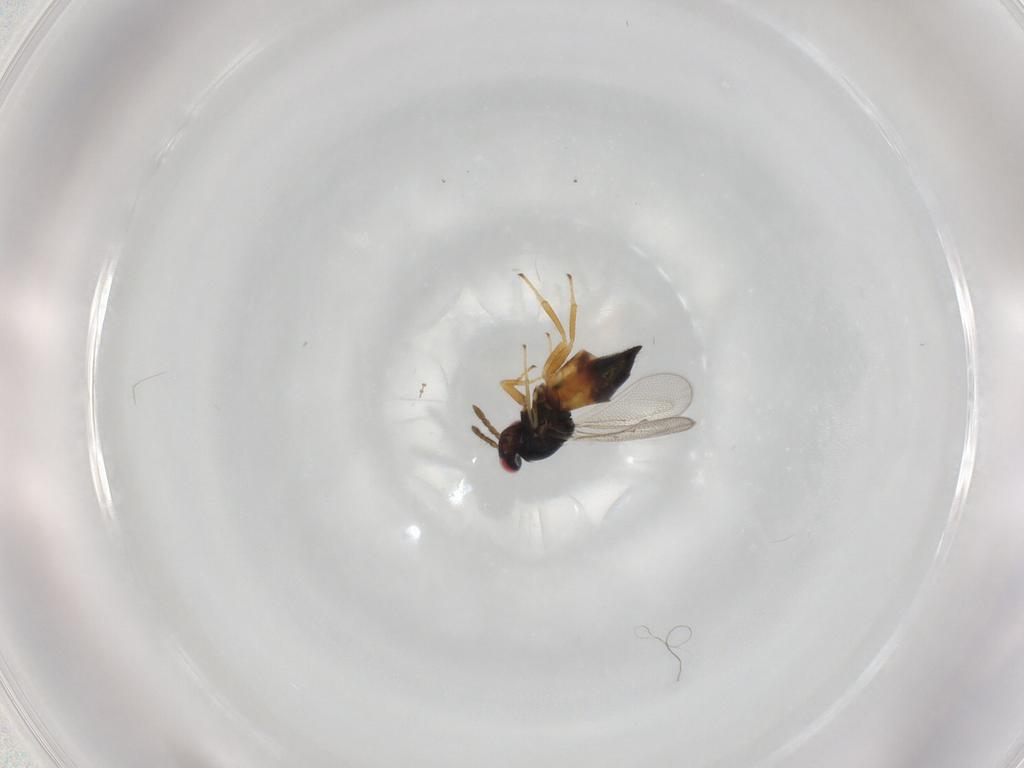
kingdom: Animalia
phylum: Arthropoda
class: Insecta
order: Hymenoptera
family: Eulophidae
